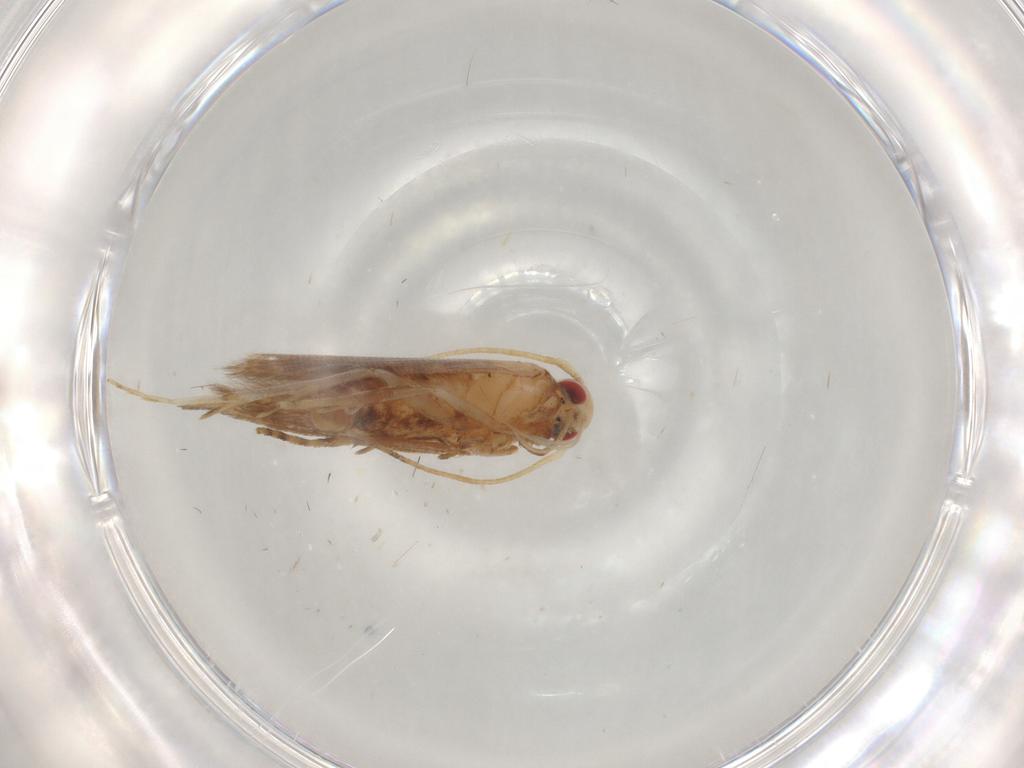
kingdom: Animalia
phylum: Arthropoda
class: Insecta
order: Lepidoptera
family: Cosmopterigidae
